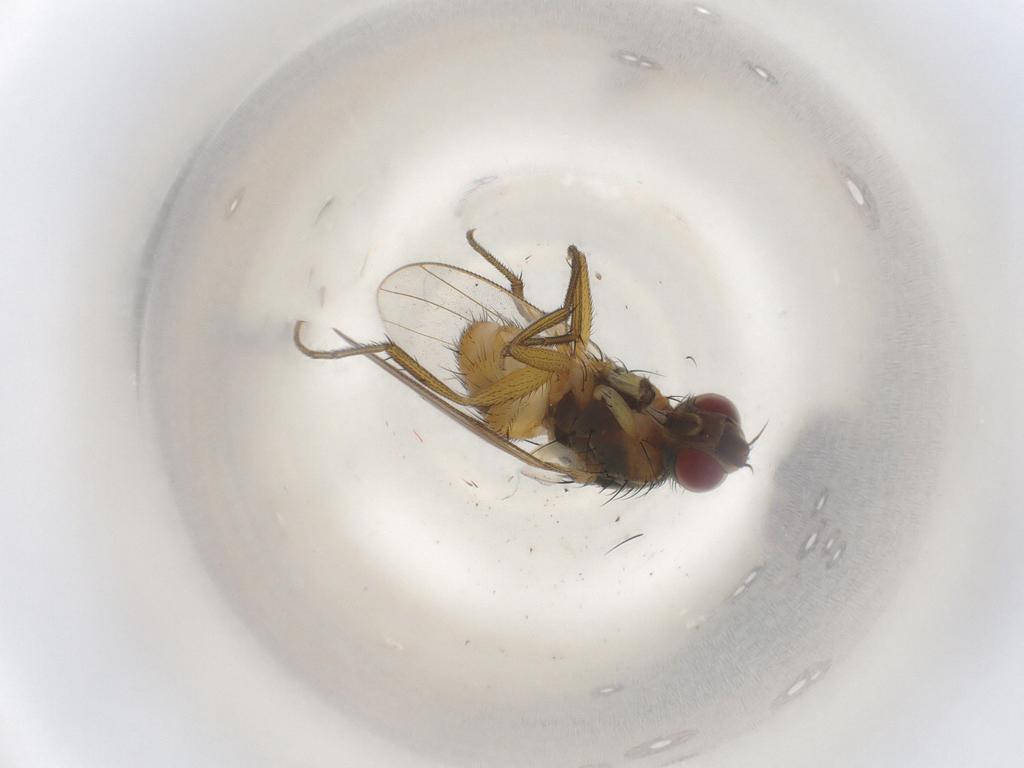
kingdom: Animalia
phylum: Arthropoda
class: Insecta
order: Diptera
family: Muscidae
